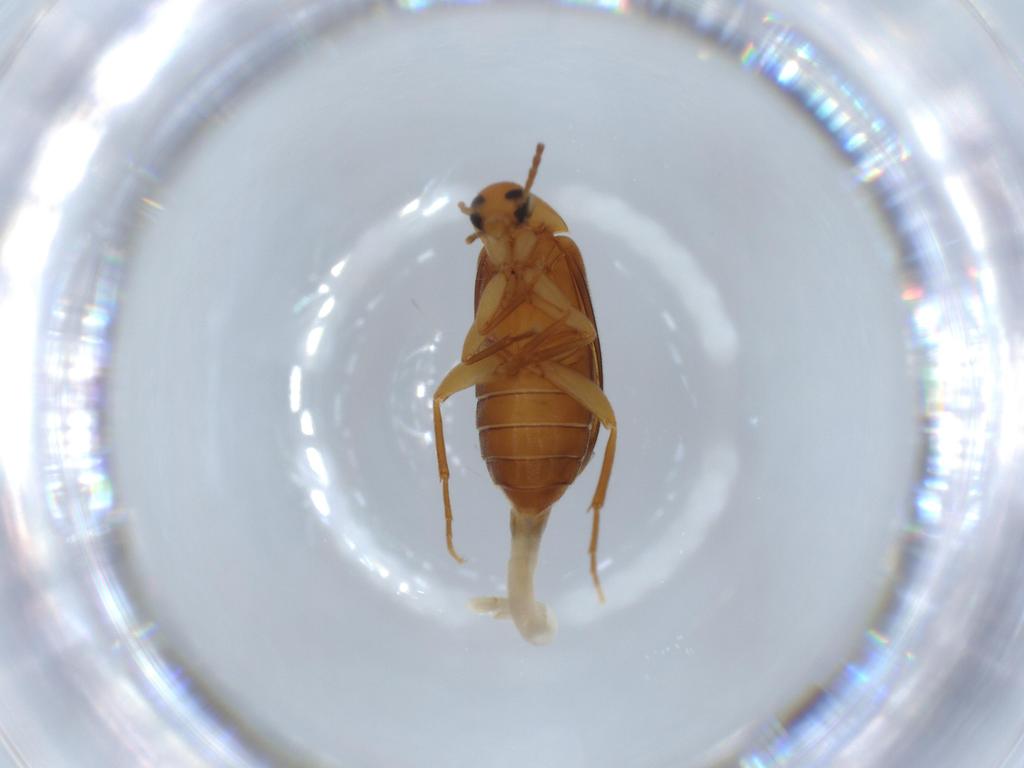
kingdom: Animalia
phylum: Arthropoda
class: Insecta
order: Coleoptera
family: Scraptiidae
